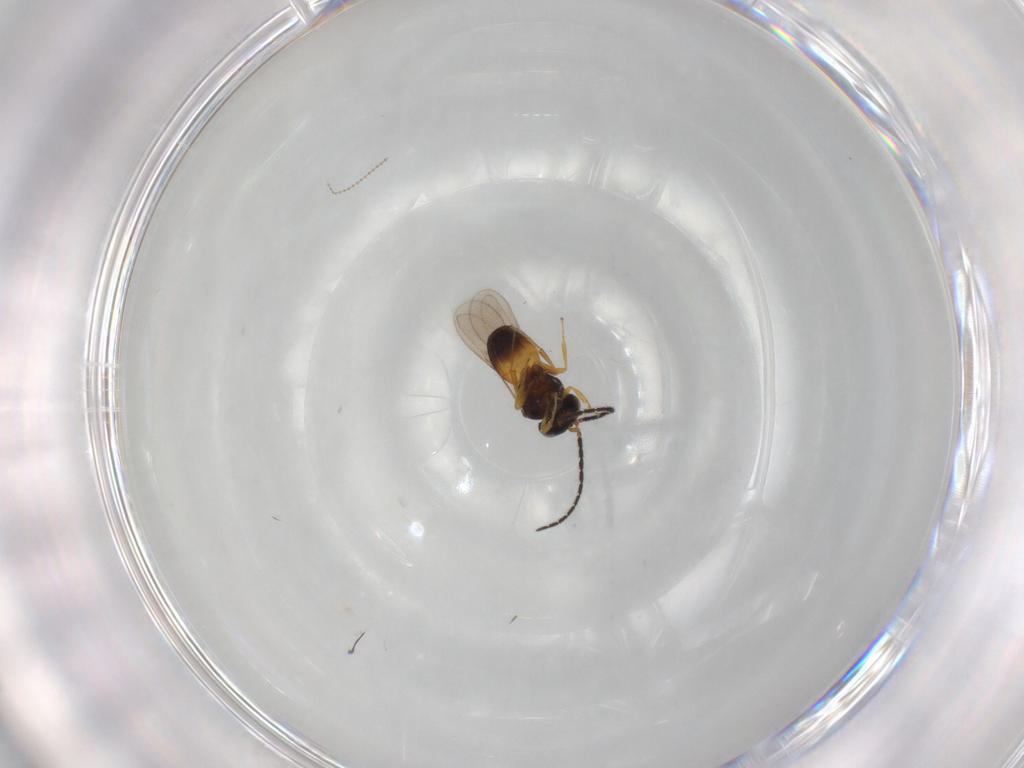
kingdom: Animalia
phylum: Arthropoda
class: Insecta
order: Hymenoptera
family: Scelionidae
